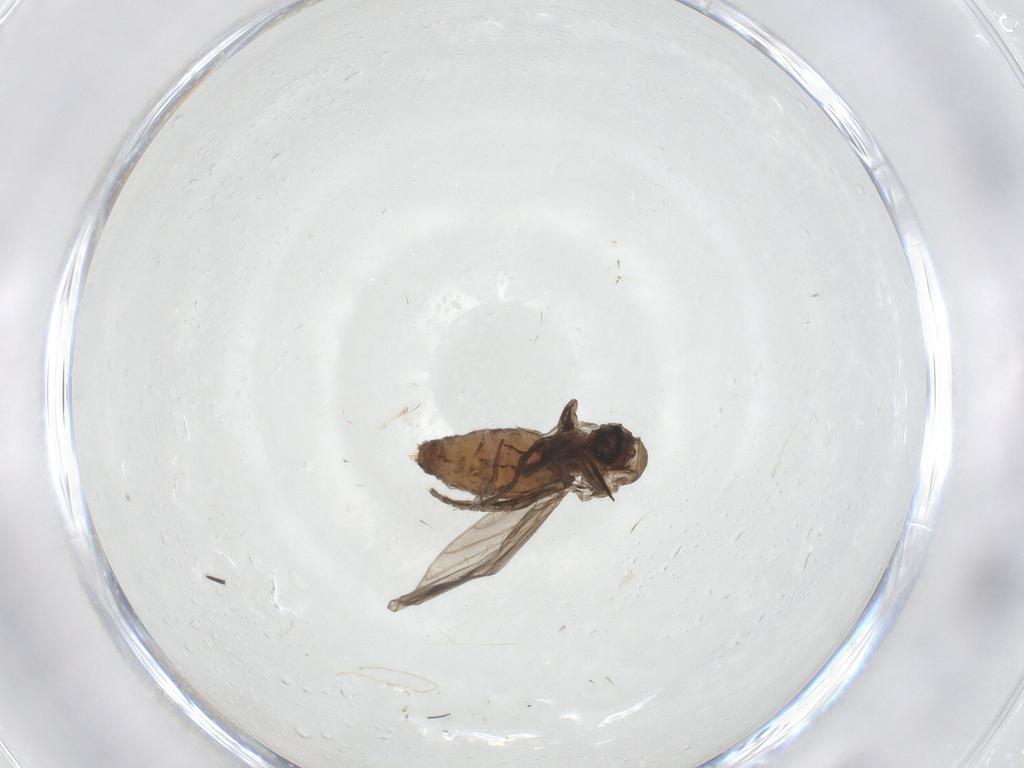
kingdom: Animalia
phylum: Arthropoda
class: Insecta
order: Diptera
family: Psychodidae
